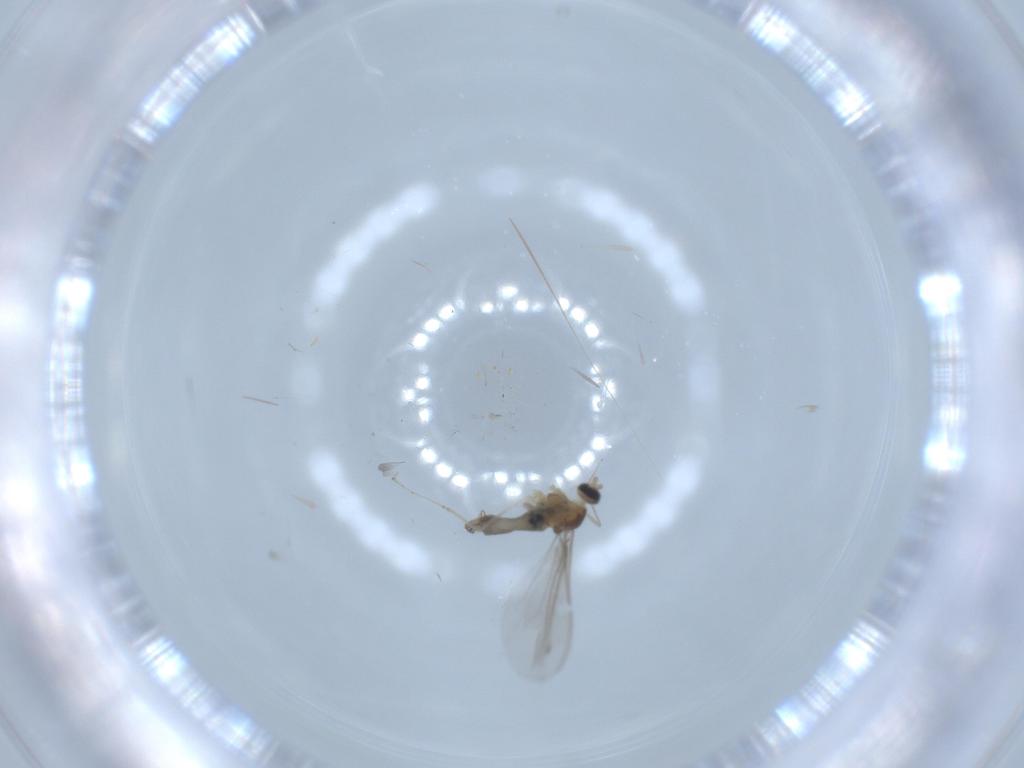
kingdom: Animalia
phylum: Arthropoda
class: Insecta
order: Diptera
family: Cecidomyiidae
